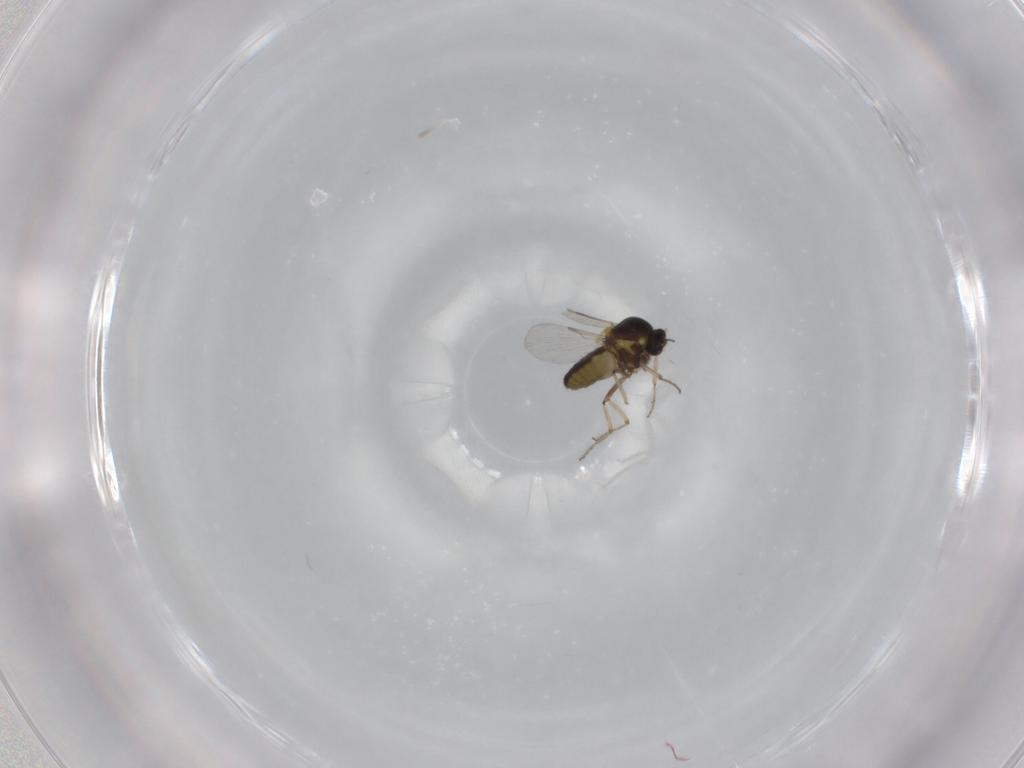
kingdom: Animalia
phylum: Arthropoda
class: Insecta
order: Diptera
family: Ceratopogonidae
